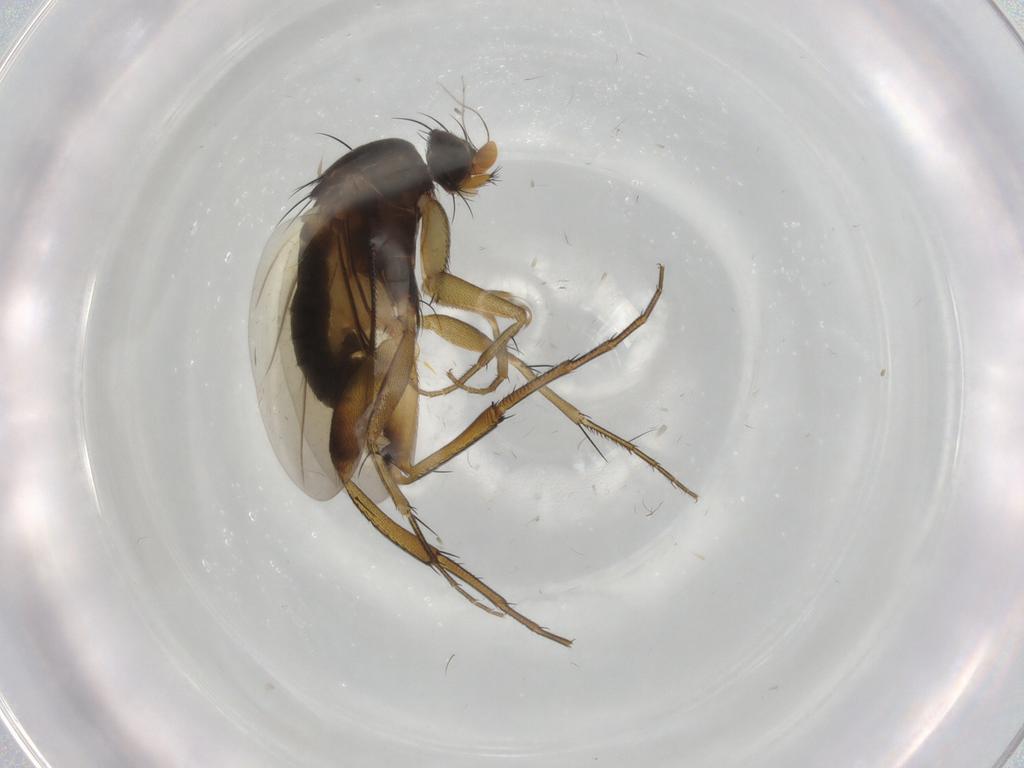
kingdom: Animalia
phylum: Arthropoda
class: Insecta
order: Diptera
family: Phoridae
